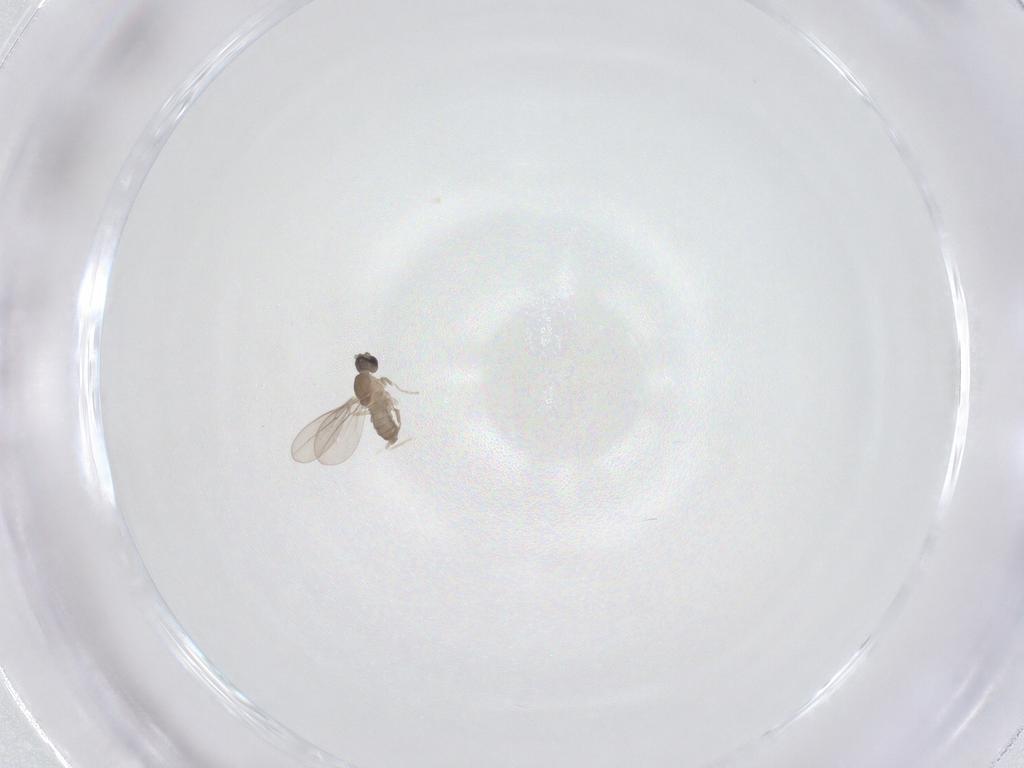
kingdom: Animalia
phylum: Arthropoda
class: Insecta
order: Diptera
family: Cecidomyiidae
